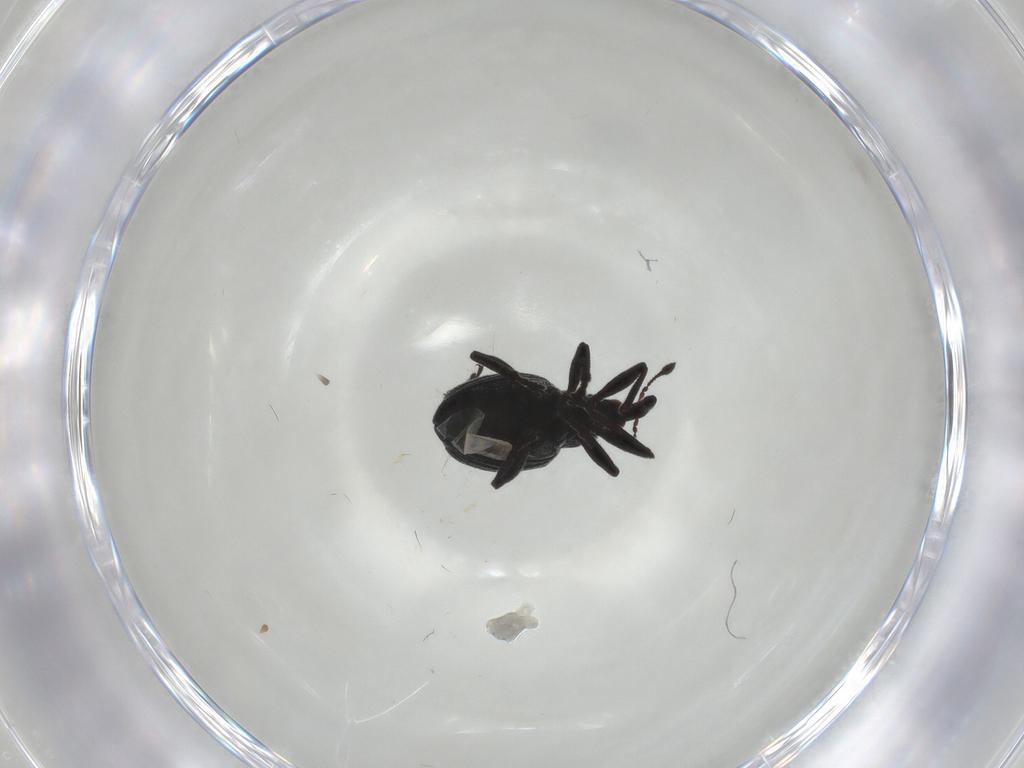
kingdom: Animalia
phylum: Arthropoda
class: Insecta
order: Coleoptera
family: Brentidae
